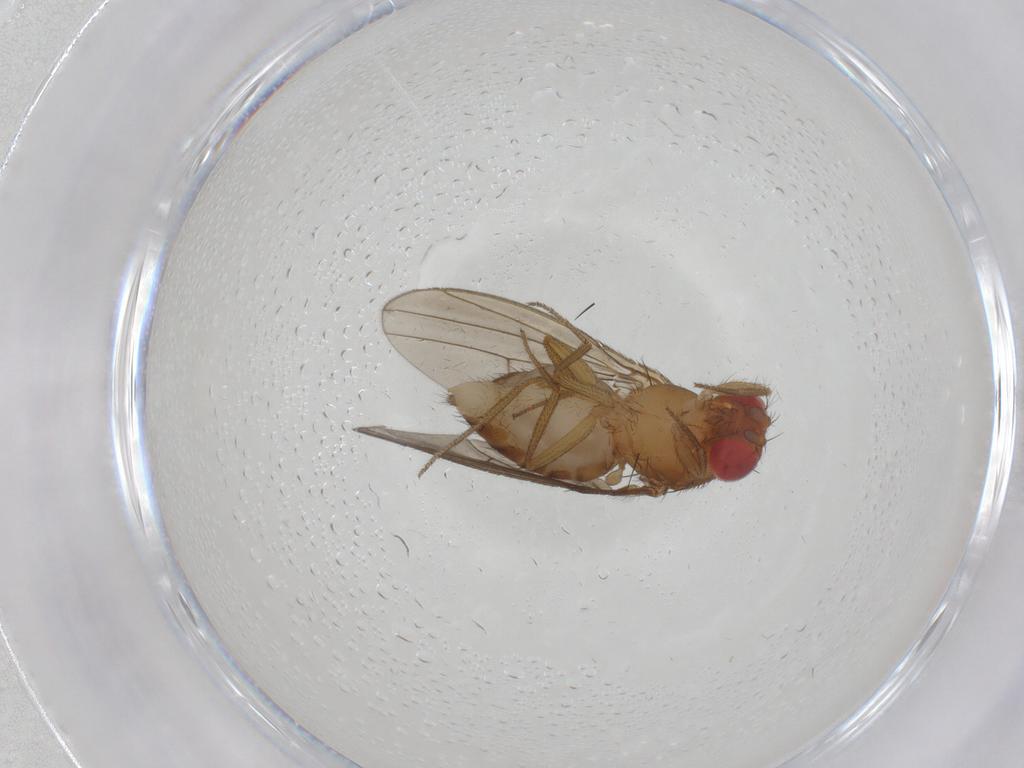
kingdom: Animalia
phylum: Arthropoda
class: Insecta
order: Diptera
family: Drosophilidae
